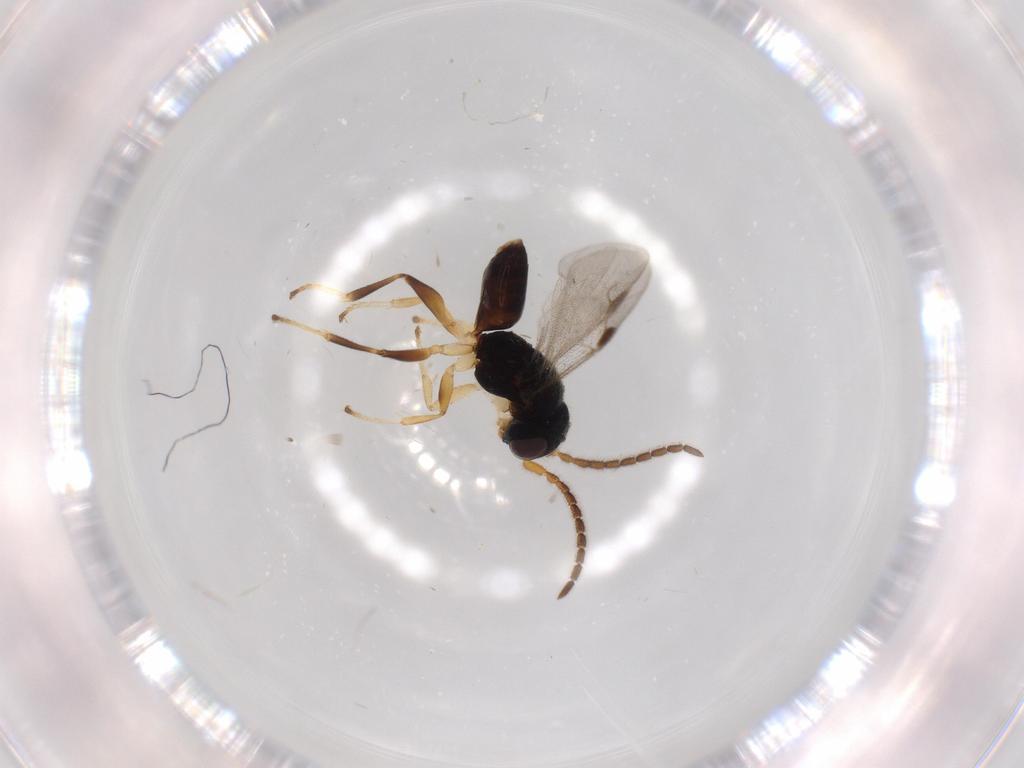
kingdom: Animalia
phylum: Arthropoda
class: Insecta
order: Hymenoptera
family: Dryinidae
